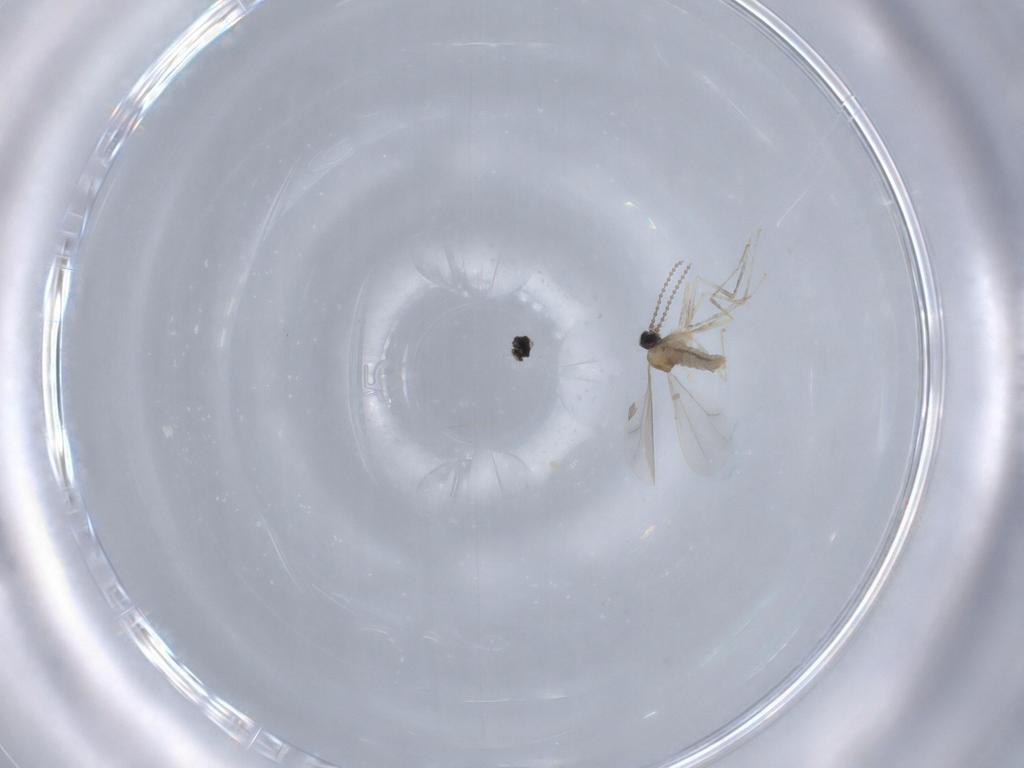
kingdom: Animalia
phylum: Arthropoda
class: Insecta
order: Diptera
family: Cecidomyiidae
